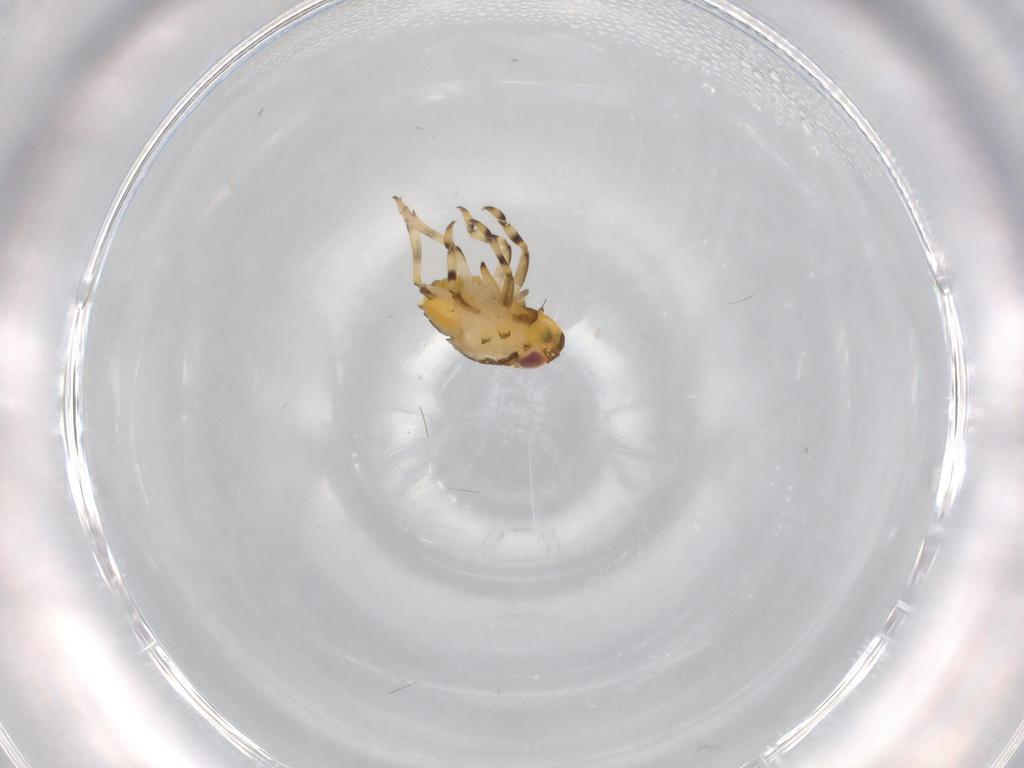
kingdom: Animalia
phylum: Arthropoda
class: Insecta
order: Hemiptera
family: Issidae
